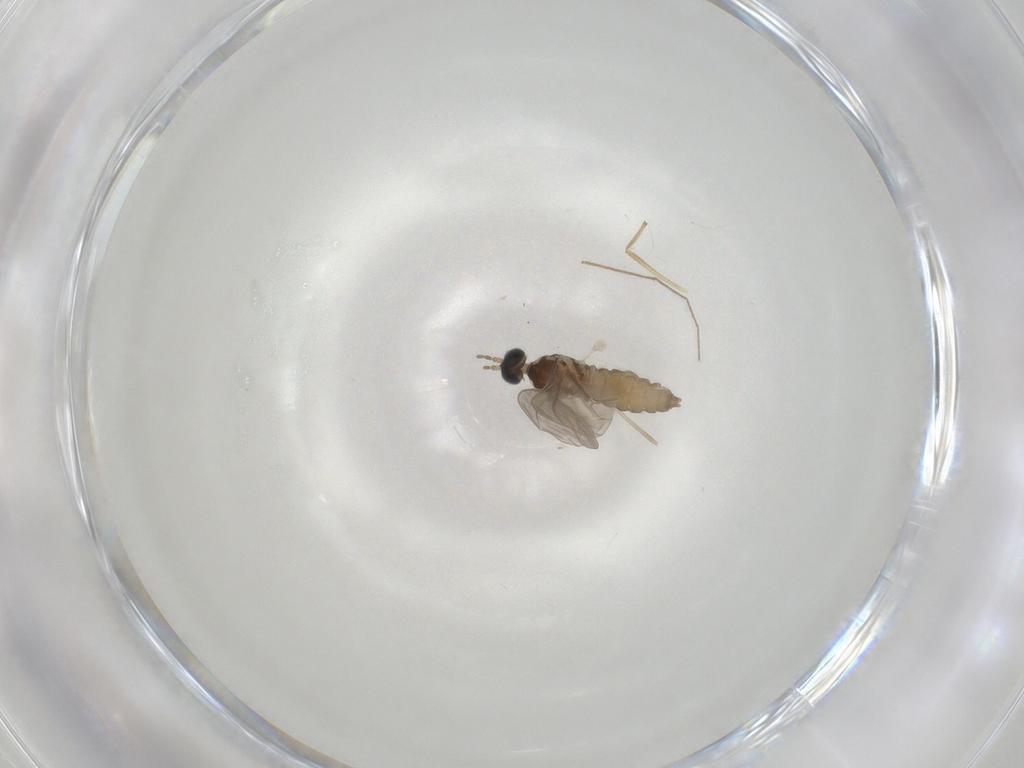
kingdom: Animalia
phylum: Arthropoda
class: Insecta
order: Diptera
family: Cecidomyiidae
